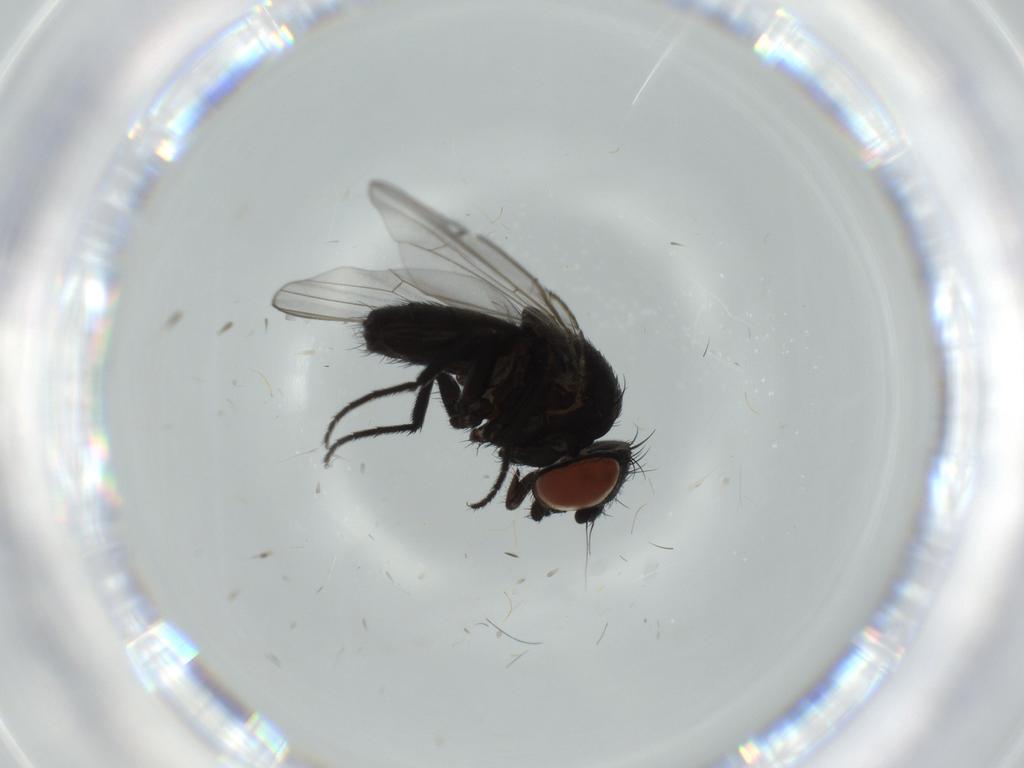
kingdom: Animalia
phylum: Arthropoda
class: Insecta
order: Diptera
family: Milichiidae
